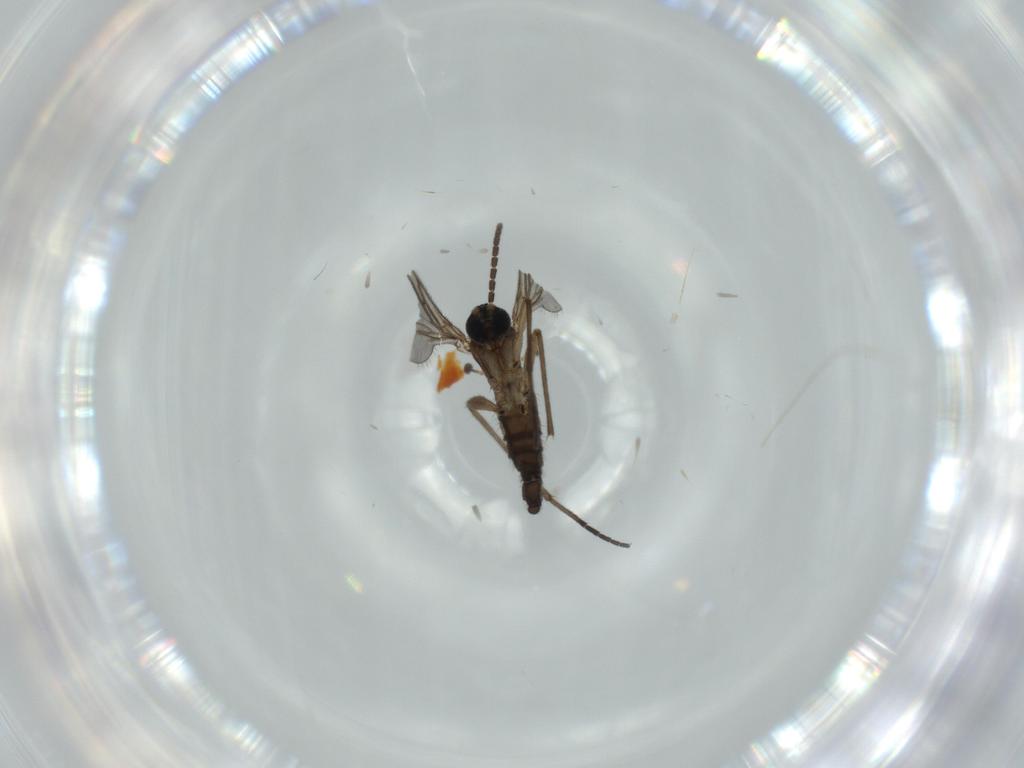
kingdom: Animalia
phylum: Arthropoda
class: Insecta
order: Diptera
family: Sciaridae
